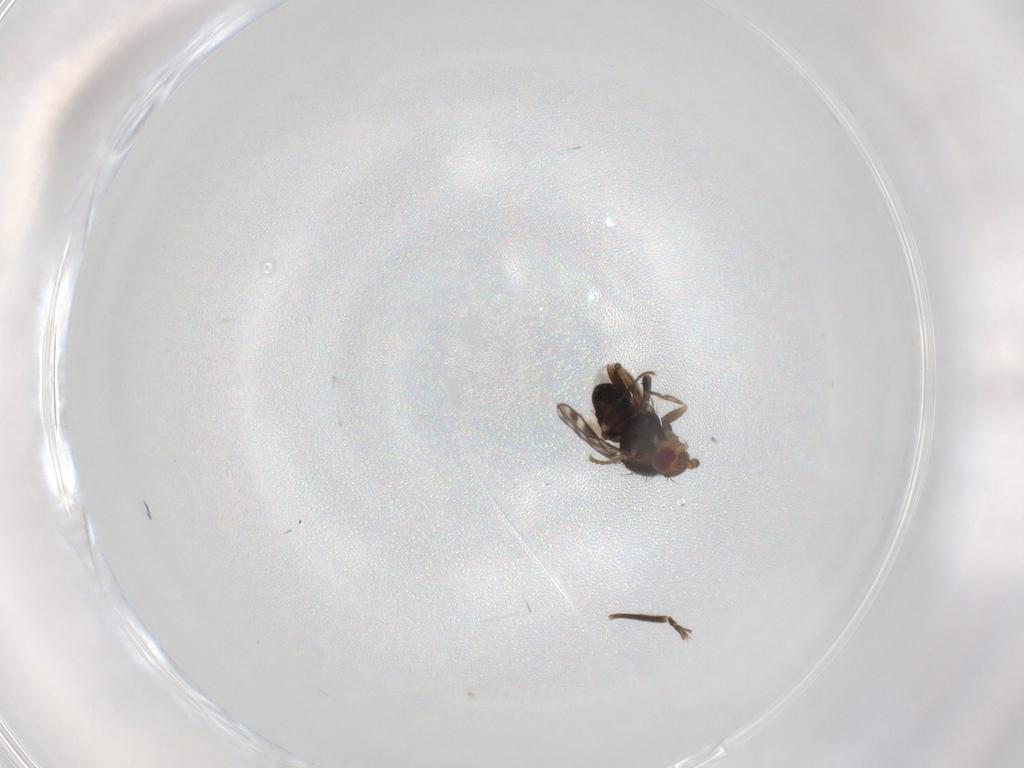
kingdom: Animalia
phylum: Arthropoda
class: Insecta
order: Diptera
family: Sphaeroceridae
